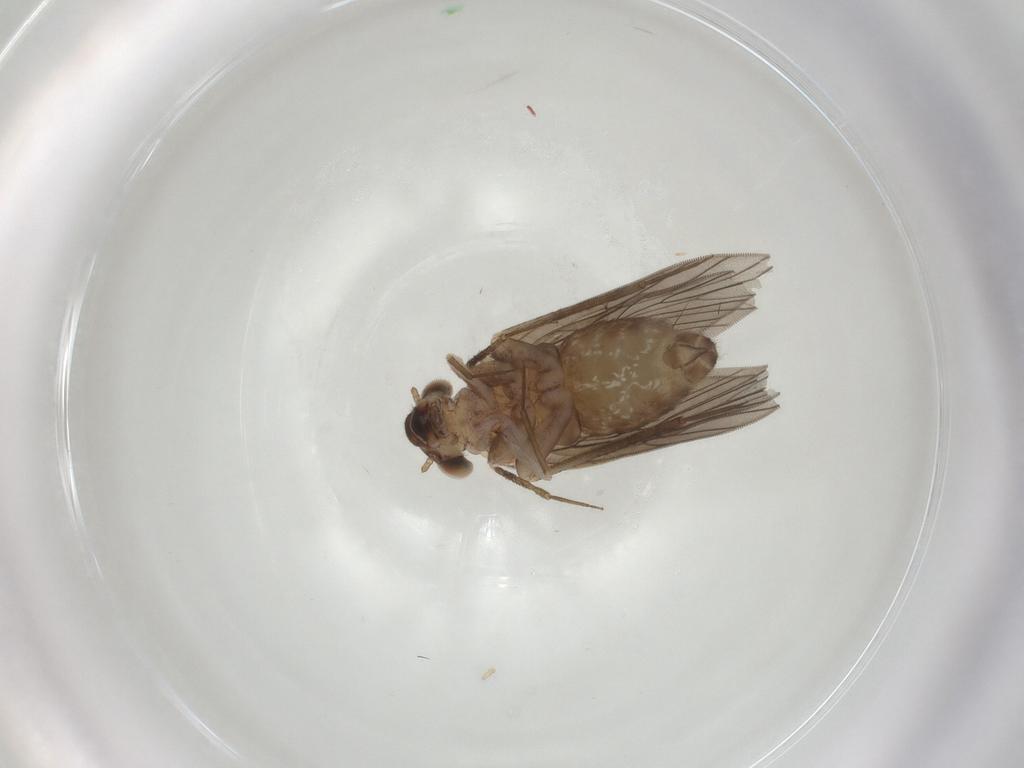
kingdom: Animalia
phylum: Arthropoda
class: Insecta
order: Psocodea
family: Lepidopsocidae
